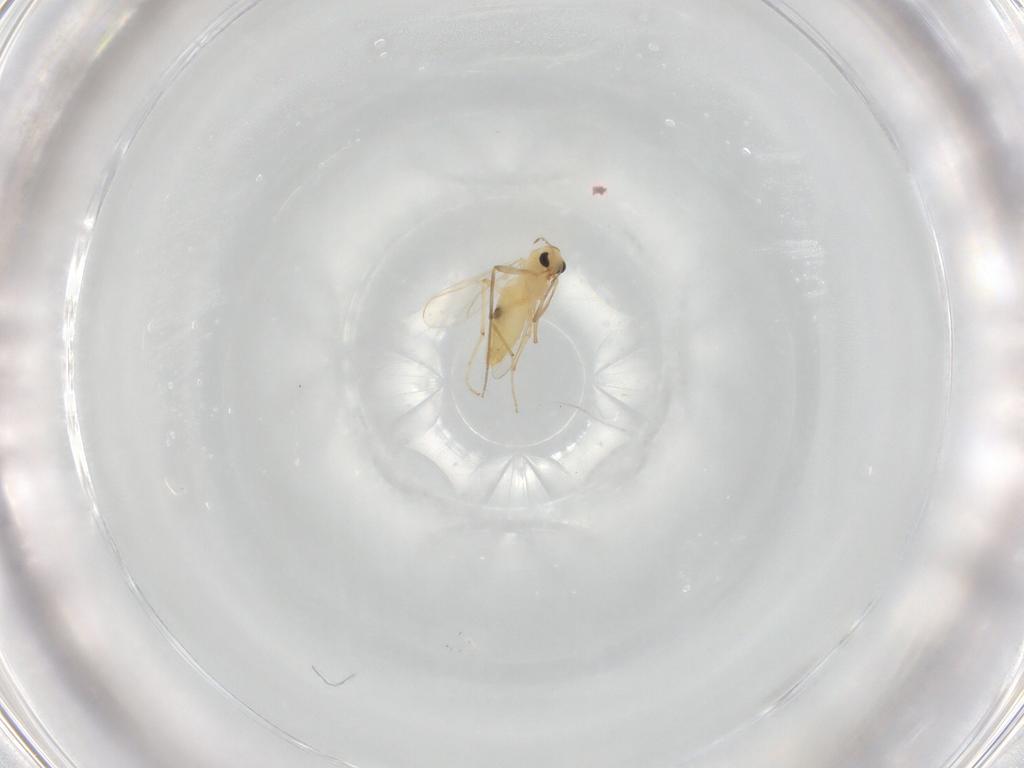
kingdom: Animalia
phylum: Arthropoda
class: Insecta
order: Diptera
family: Chironomidae
